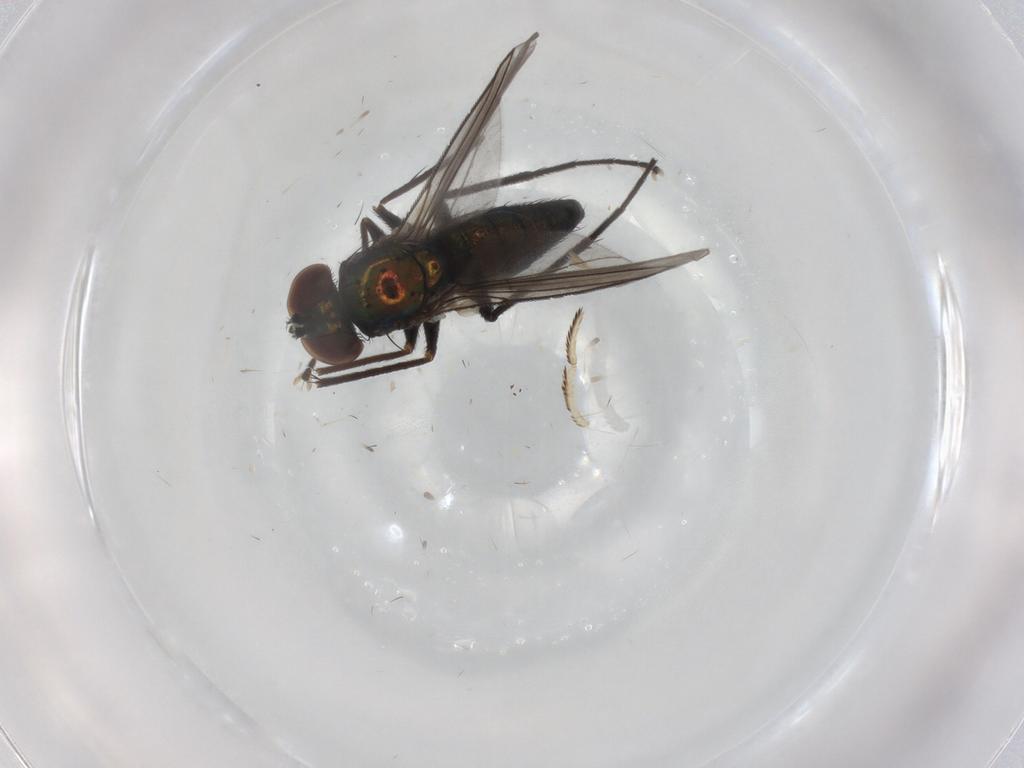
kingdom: Animalia
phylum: Arthropoda
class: Insecta
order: Diptera
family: Dolichopodidae
